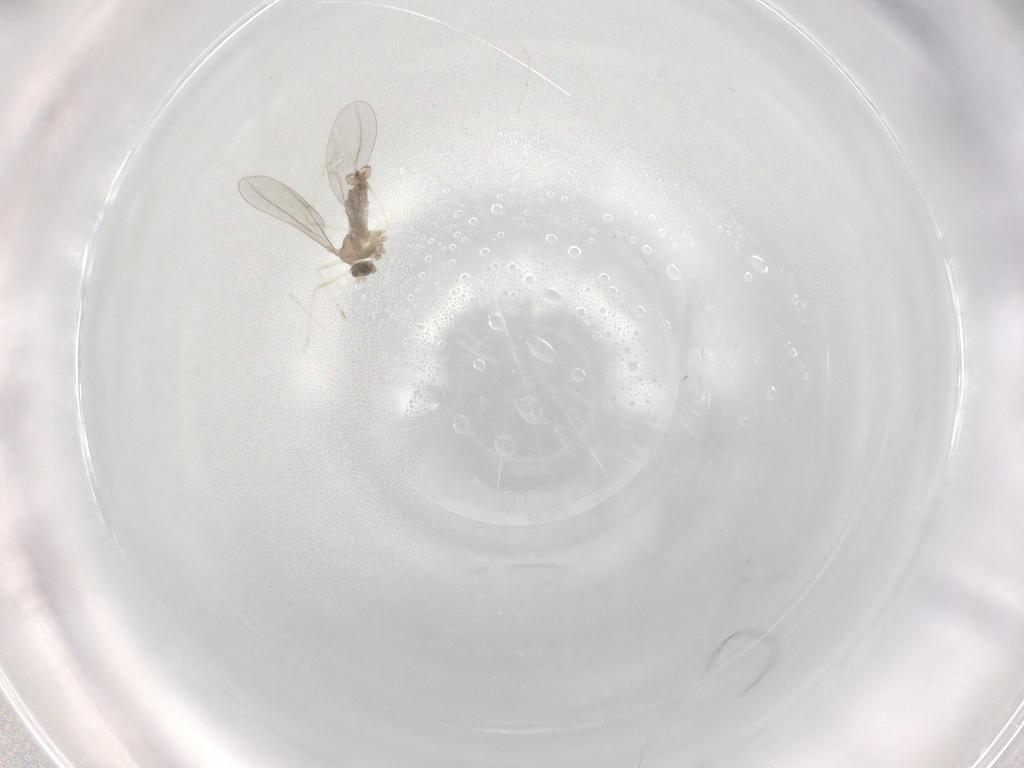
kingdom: Animalia
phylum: Arthropoda
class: Insecta
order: Diptera
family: Cecidomyiidae
